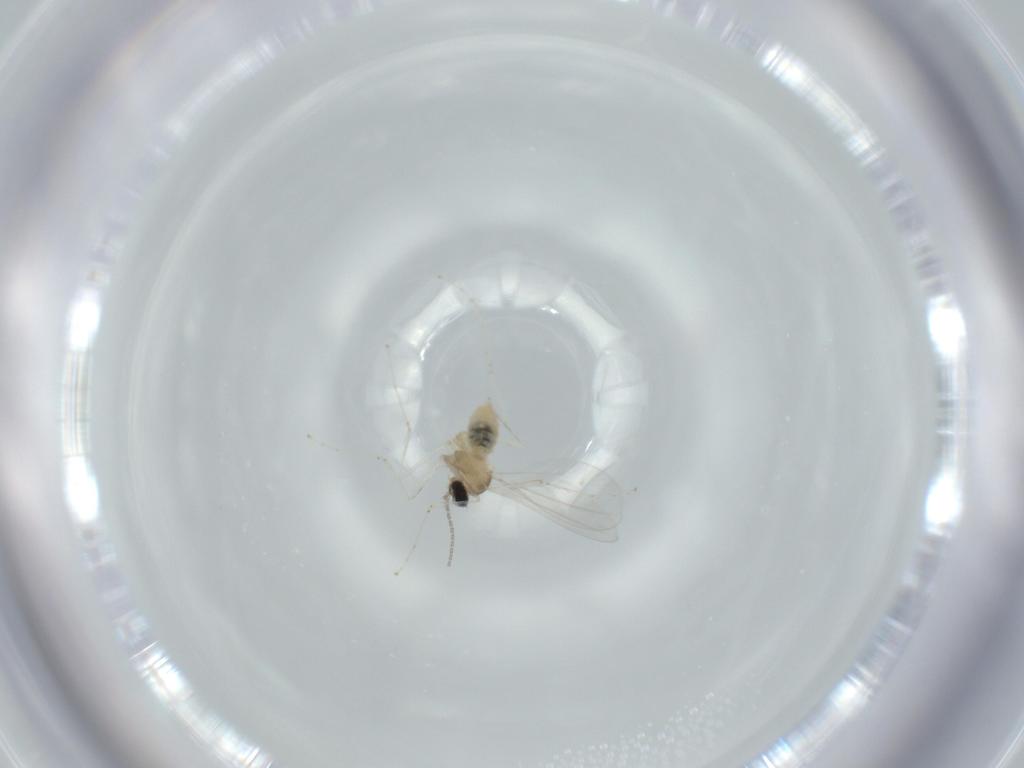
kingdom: Animalia
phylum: Arthropoda
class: Insecta
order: Diptera
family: Cecidomyiidae
